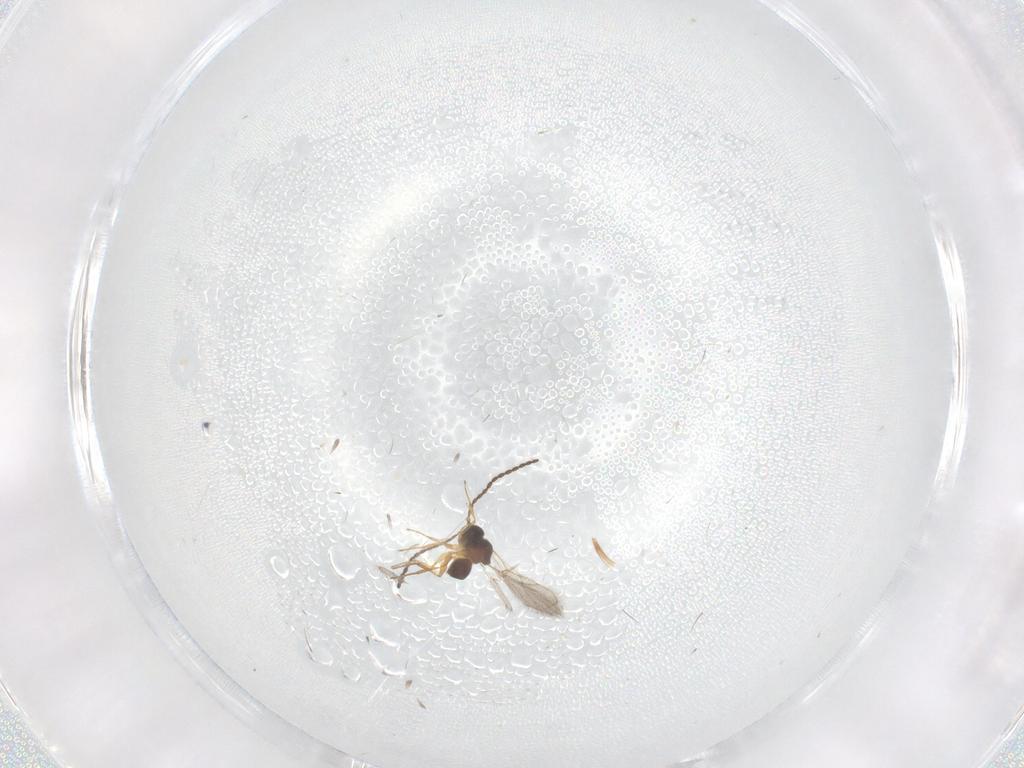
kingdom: Animalia
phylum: Arthropoda
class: Insecta
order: Hymenoptera
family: Figitidae
